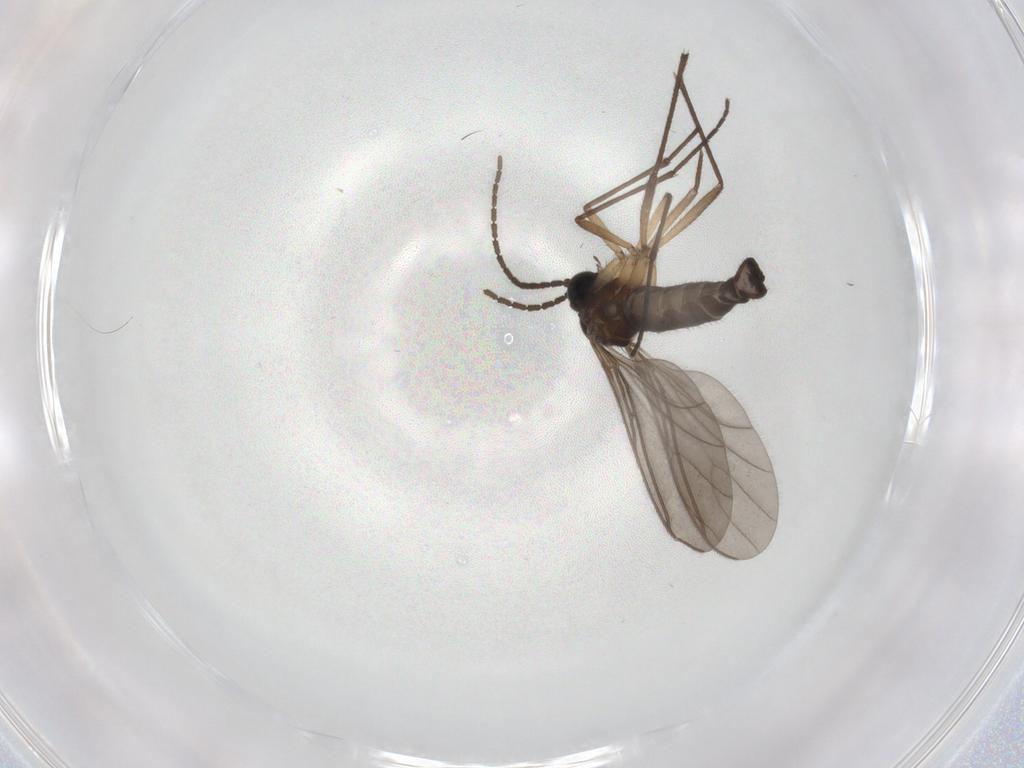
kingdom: Animalia
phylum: Arthropoda
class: Insecta
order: Diptera
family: Sciaridae
